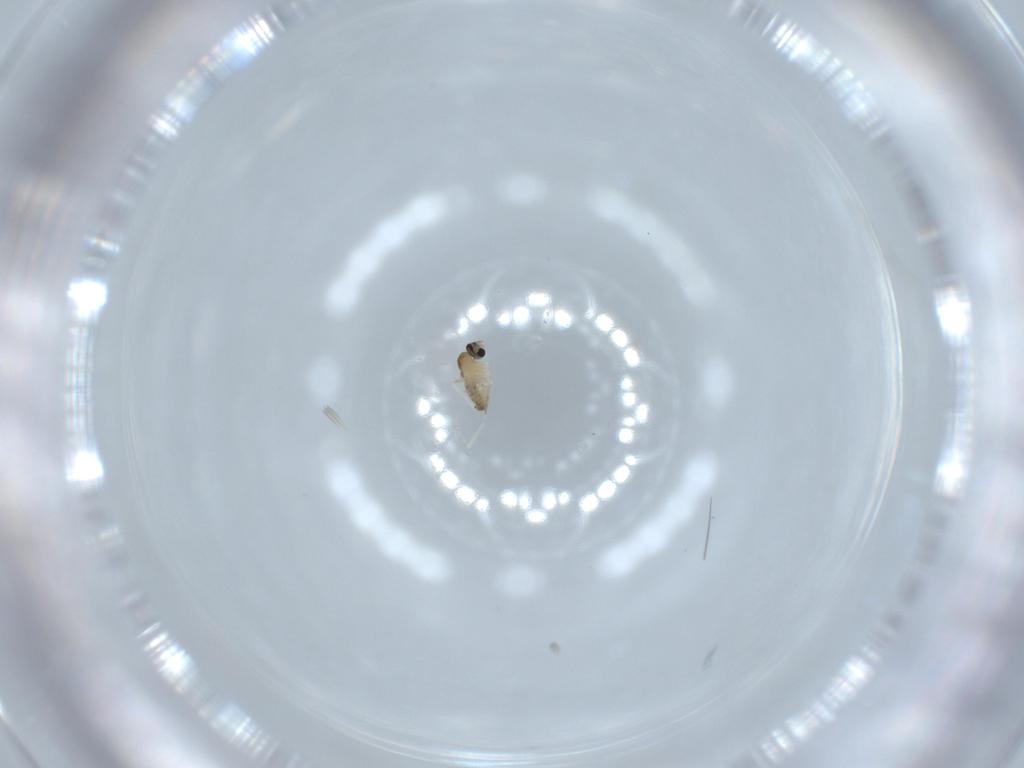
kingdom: Animalia
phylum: Arthropoda
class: Insecta
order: Diptera
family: Cecidomyiidae
